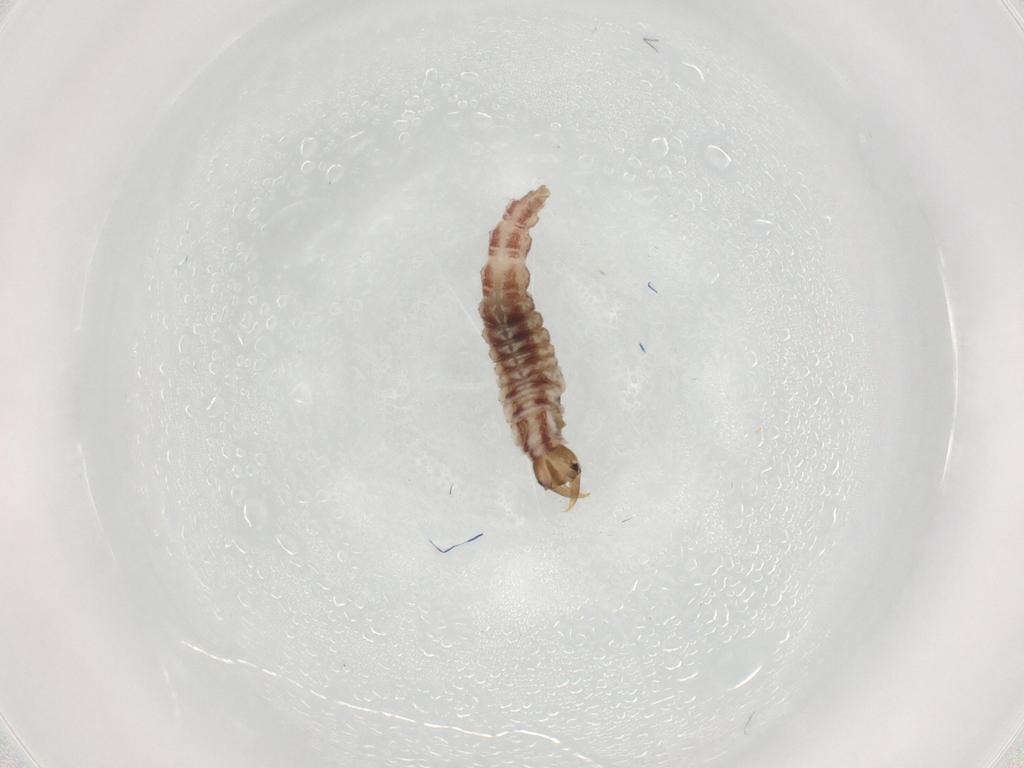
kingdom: Animalia
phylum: Arthropoda
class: Insecta
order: Neuroptera
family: Hemerobiidae
